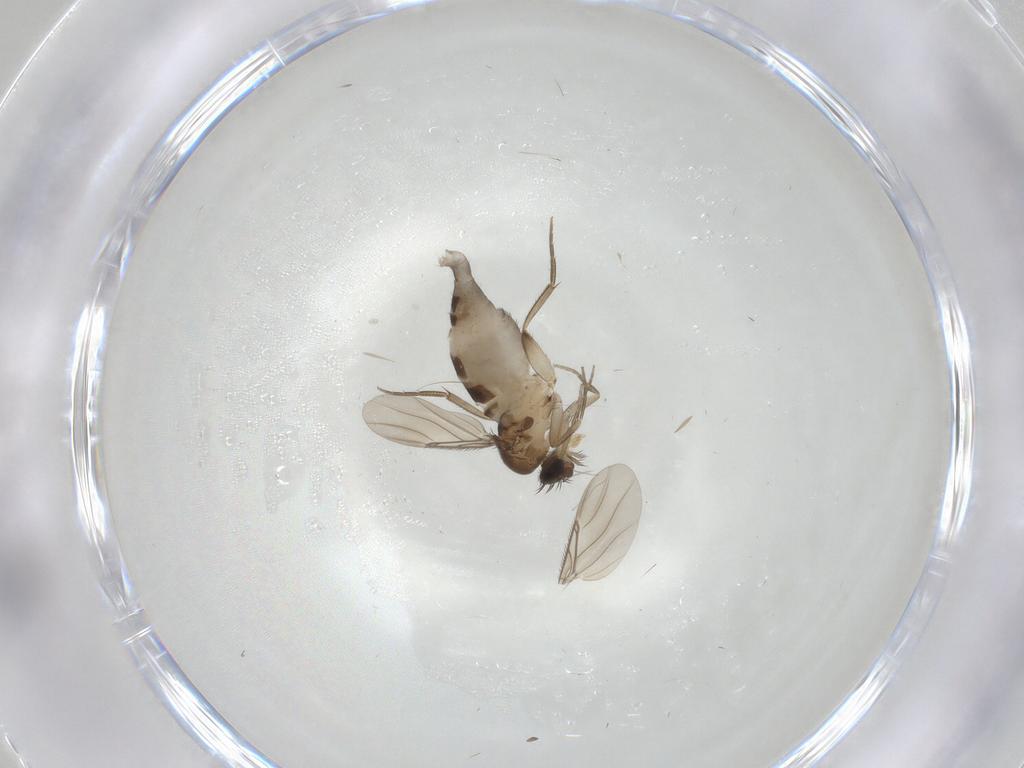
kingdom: Animalia
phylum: Arthropoda
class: Insecta
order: Diptera
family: Phoridae
